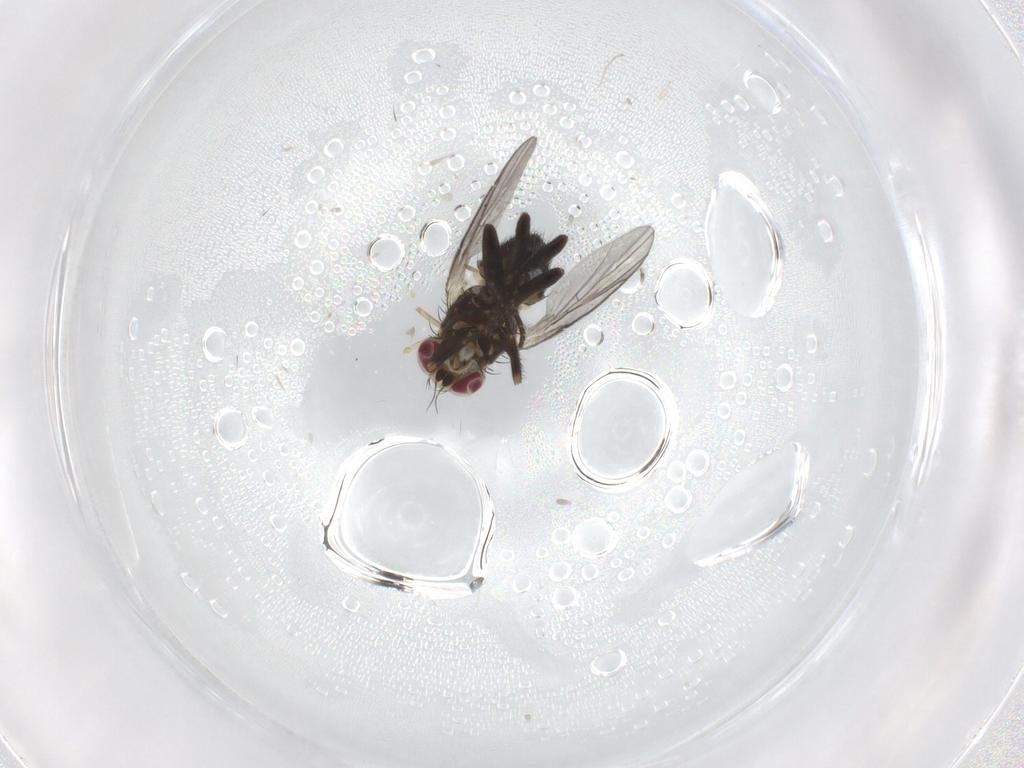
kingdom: Animalia
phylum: Arthropoda
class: Insecta
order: Diptera
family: Agromyzidae
